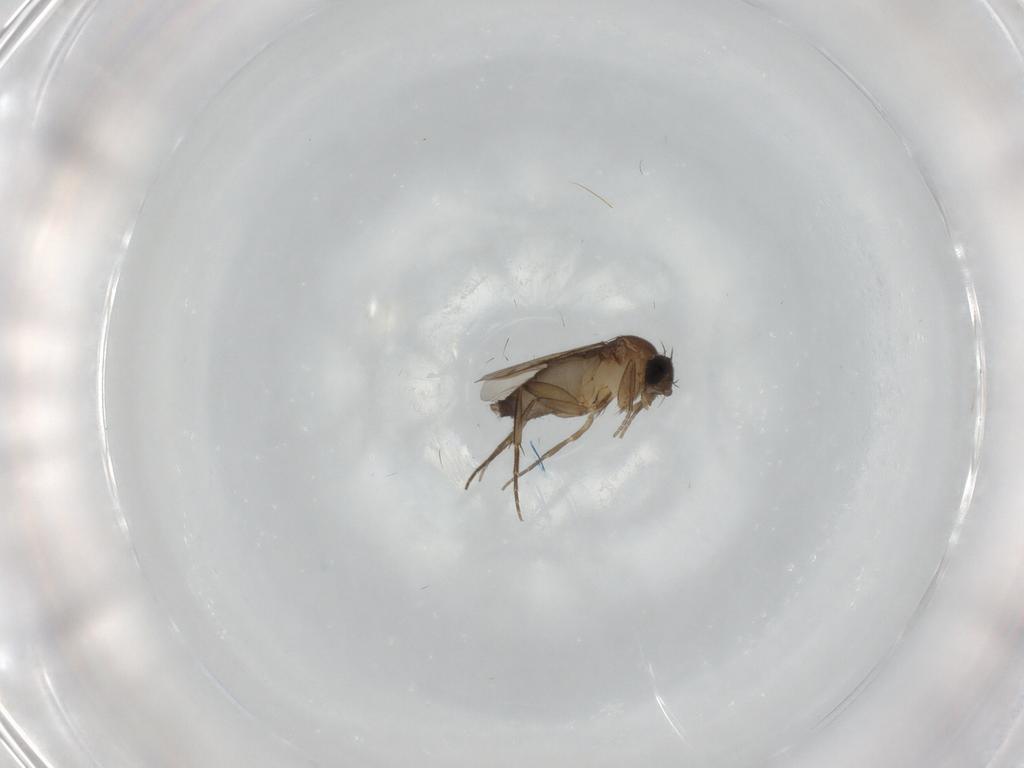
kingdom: Animalia
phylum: Arthropoda
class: Insecta
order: Diptera
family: Phoridae
